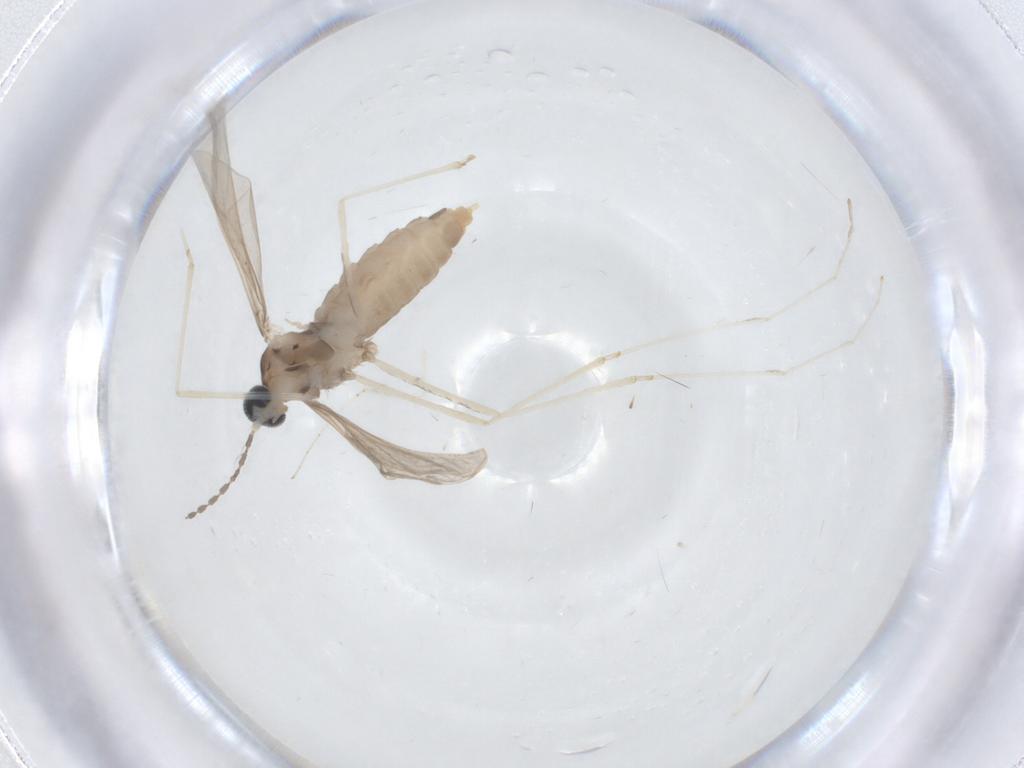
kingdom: Animalia
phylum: Arthropoda
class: Insecta
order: Diptera
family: Cecidomyiidae
